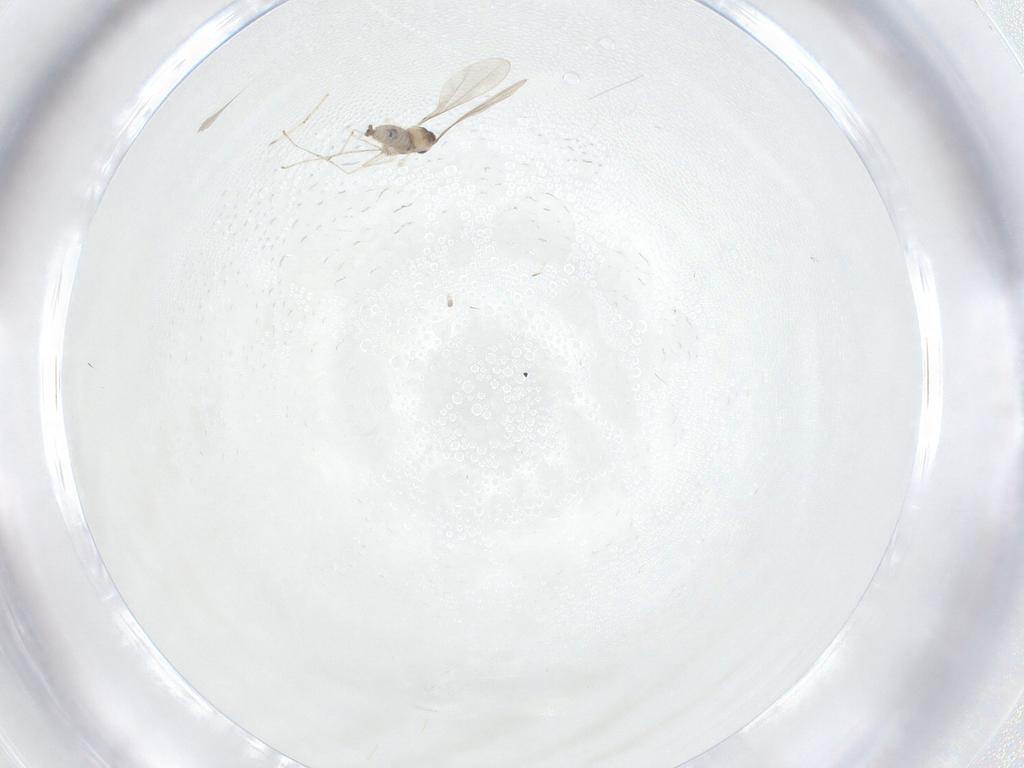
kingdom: Animalia
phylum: Arthropoda
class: Insecta
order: Diptera
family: Cecidomyiidae
